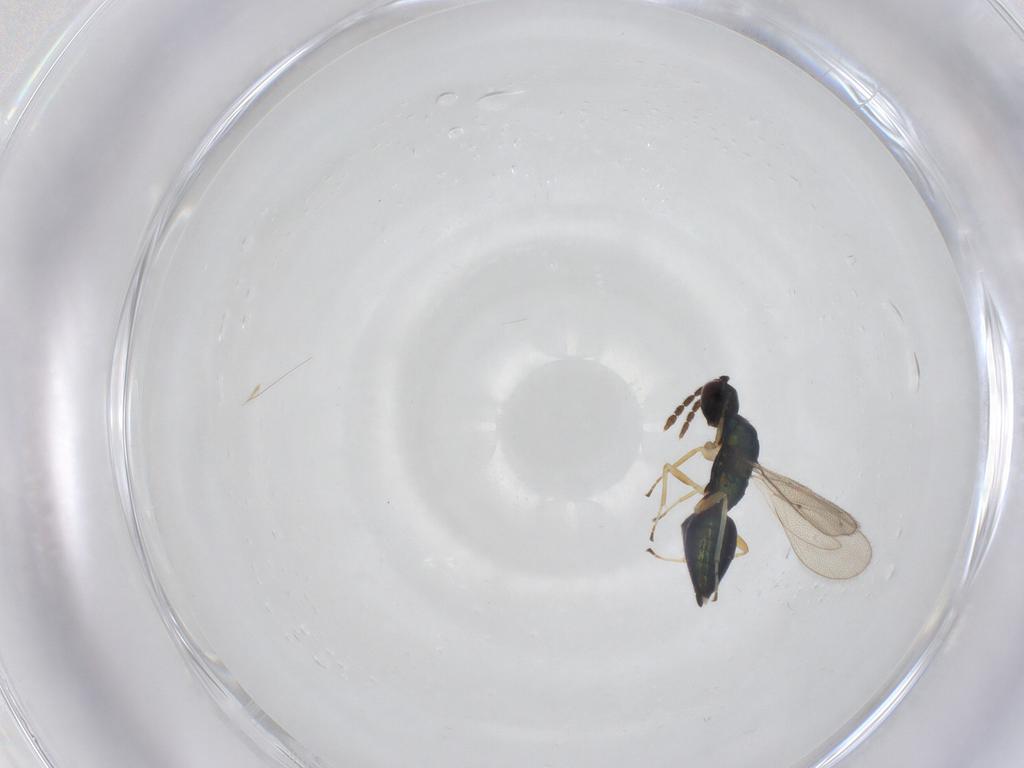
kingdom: Animalia
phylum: Arthropoda
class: Insecta
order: Hymenoptera
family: Eulophidae
